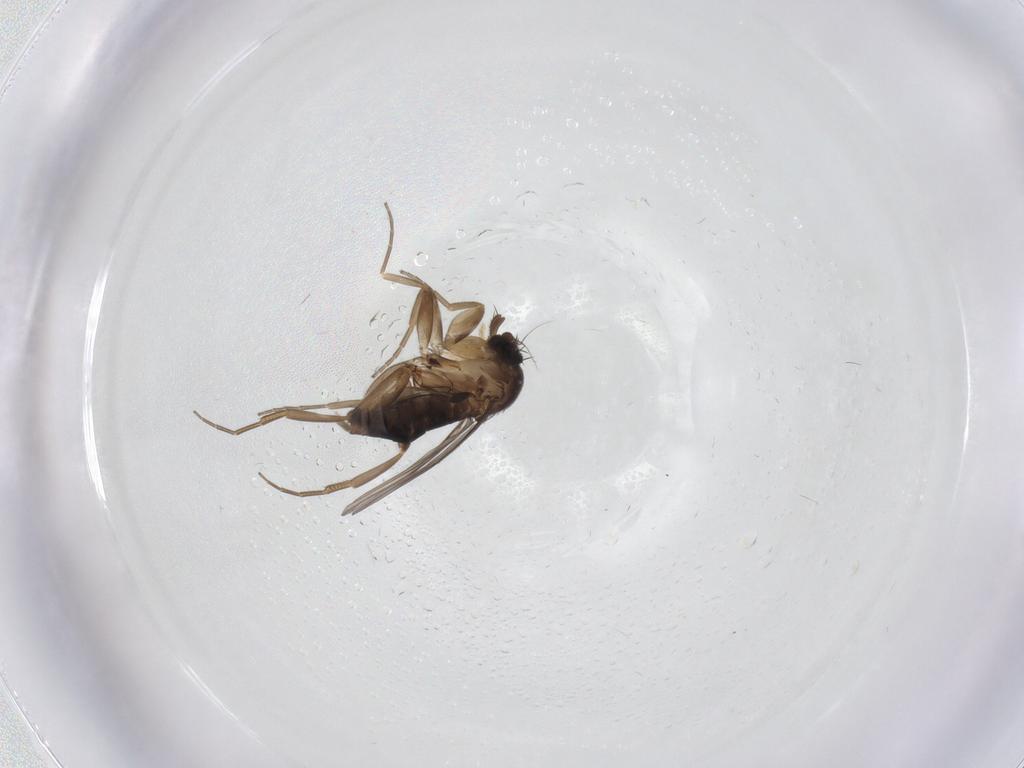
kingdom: Animalia
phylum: Arthropoda
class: Insecta
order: Diptera
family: Phoridae
